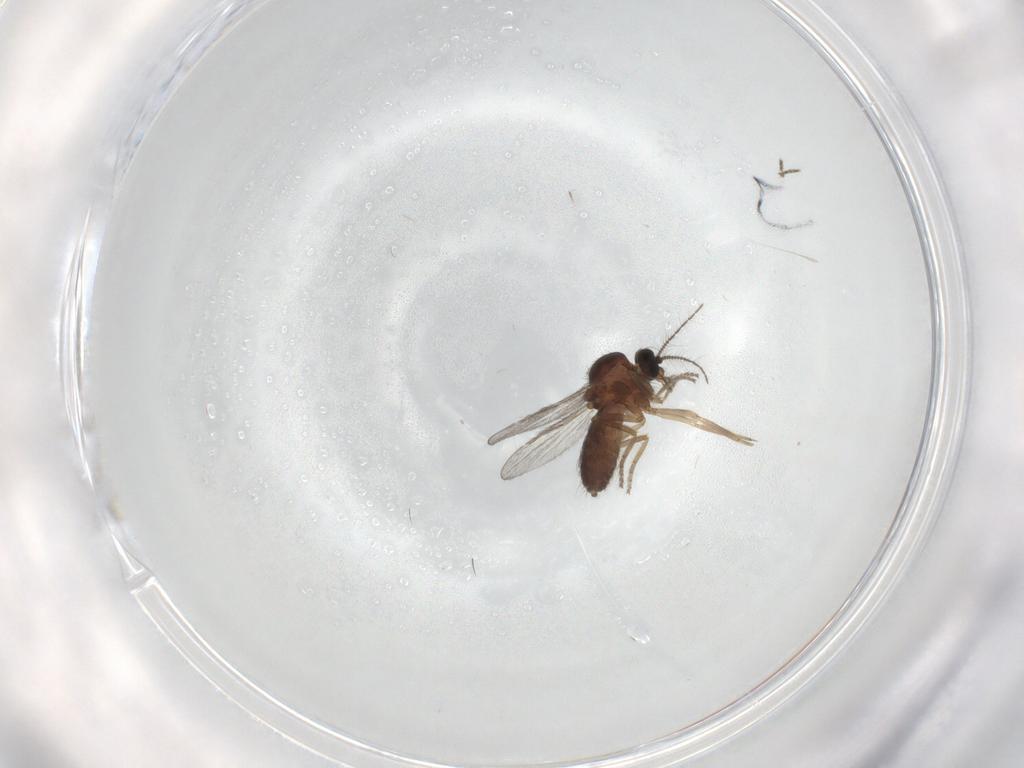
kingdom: Animalia
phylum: Arthropoda
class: Insecta
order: Diptera
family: Ceratopogonidae
